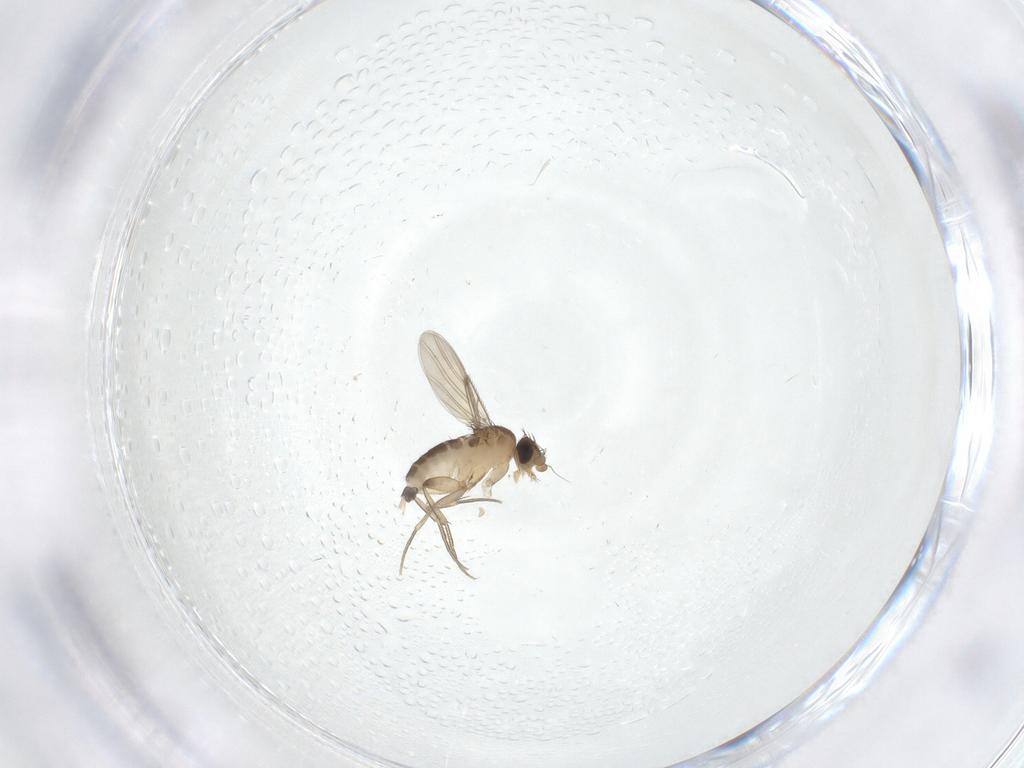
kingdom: Animalia
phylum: Arthropoda
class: Insecta
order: Diptera
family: Phoridae
